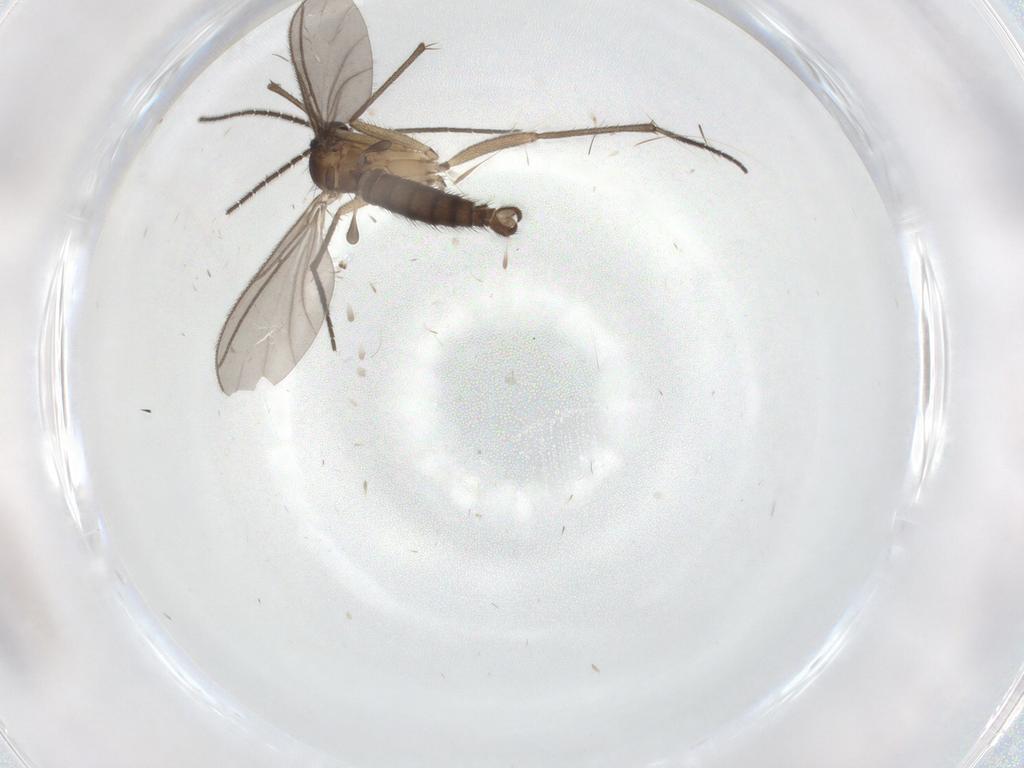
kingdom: Animalia
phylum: Arthropoda
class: Insecta
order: Diptera
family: Sciaridae
